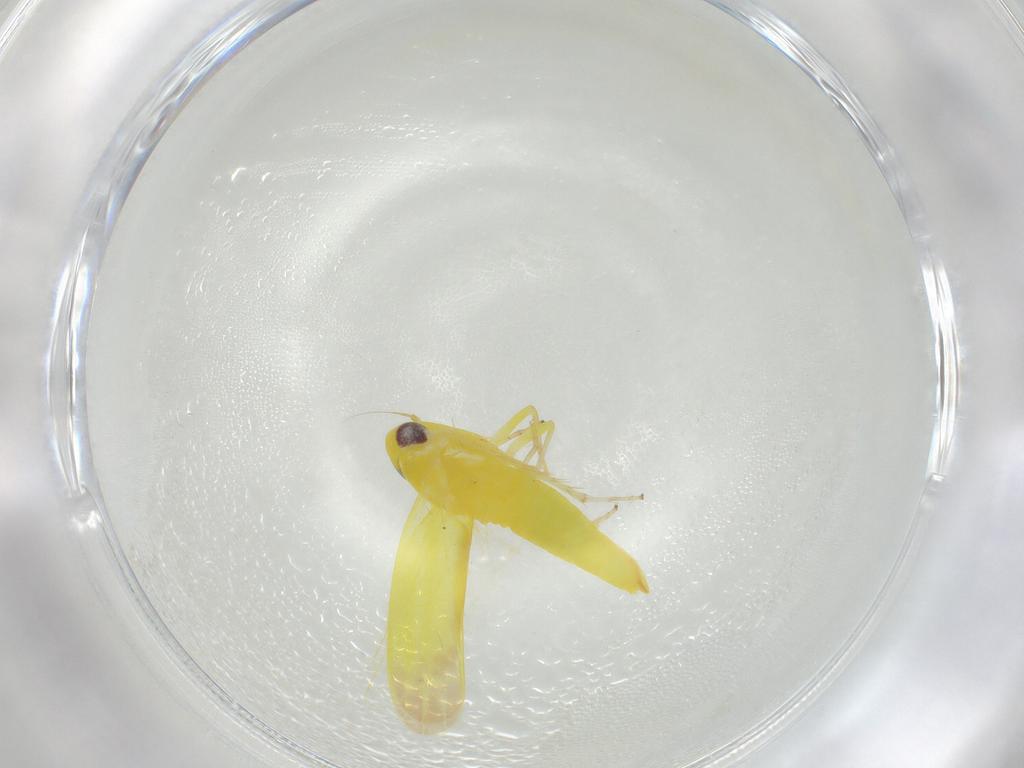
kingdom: Animalia
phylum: Arthropoda
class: Insecta
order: Hemiptera
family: Cicadellidae
